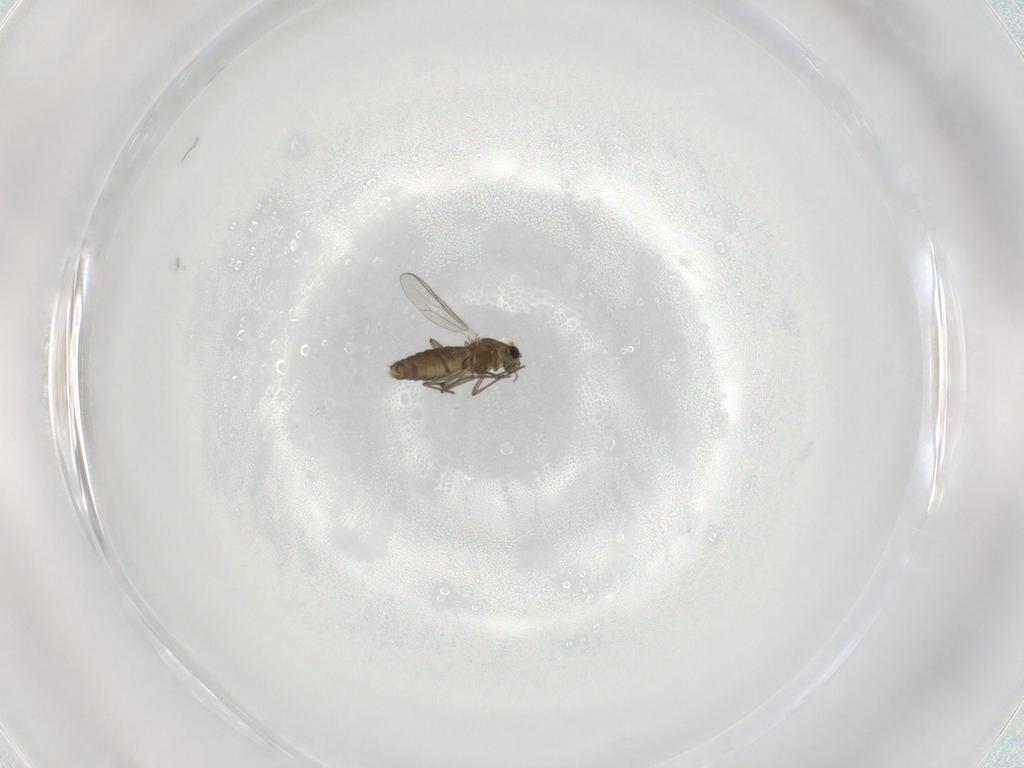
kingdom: Animalia
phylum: Arthropoda
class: Insecta
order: Diptera
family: Chironomidae
